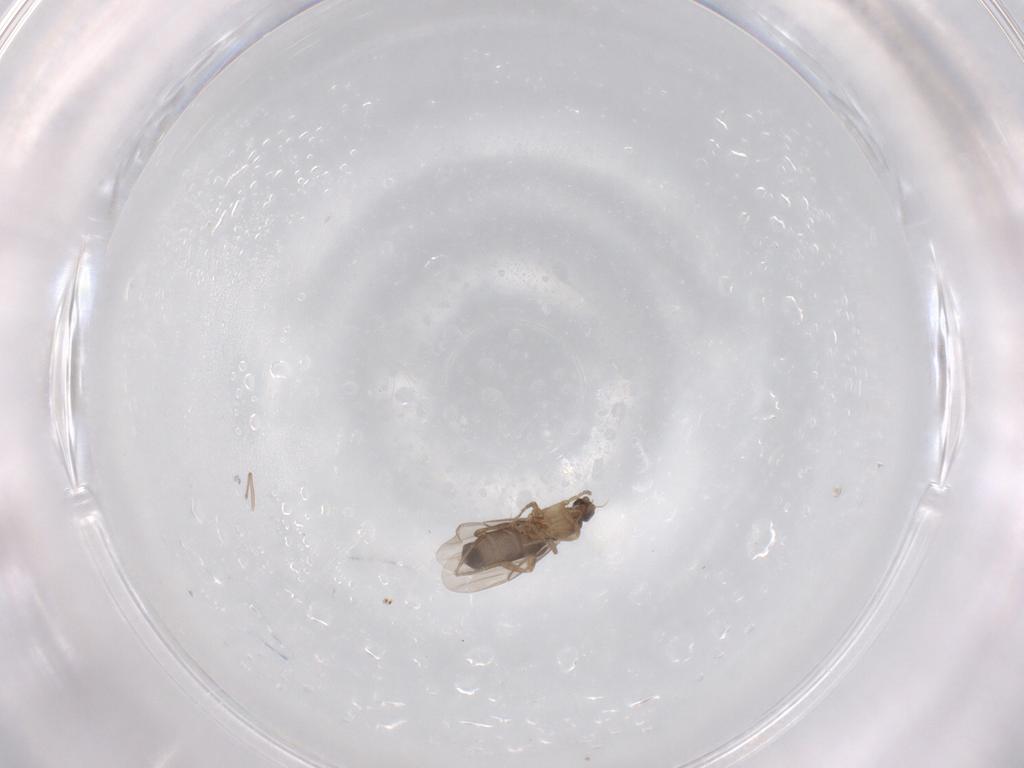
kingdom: Animalia
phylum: Arthropoda
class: Insecta
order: Diptera
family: Phoridae
